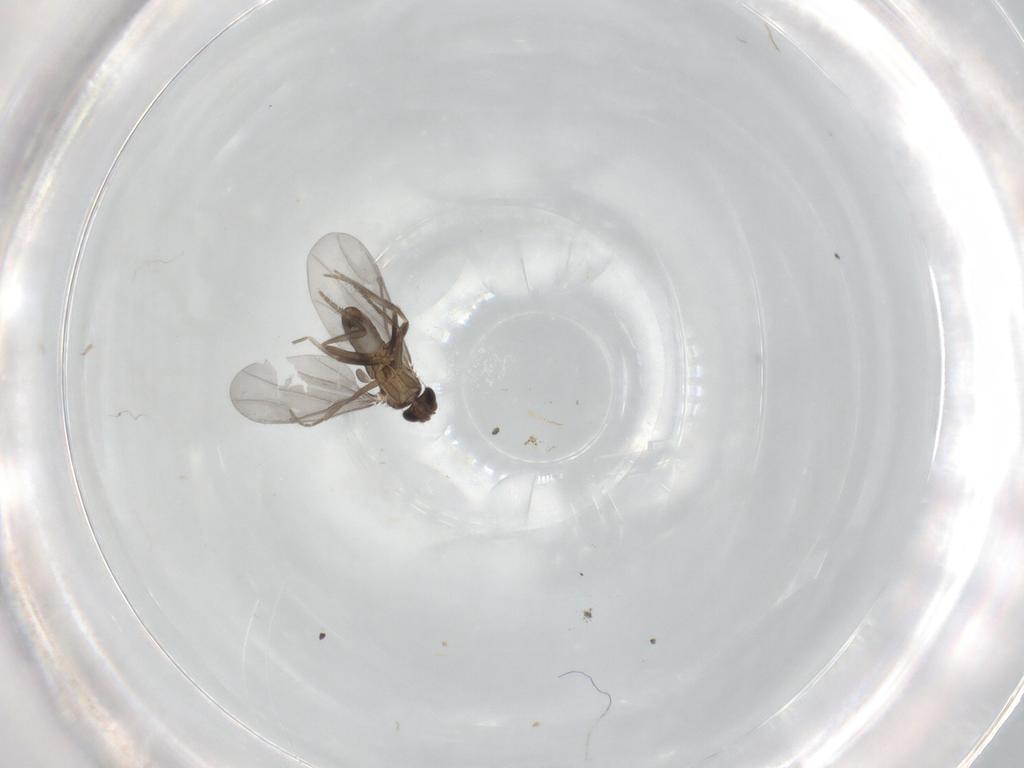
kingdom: Animalia
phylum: Arthropoda
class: Insecta
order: Diptera
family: Phoridae
